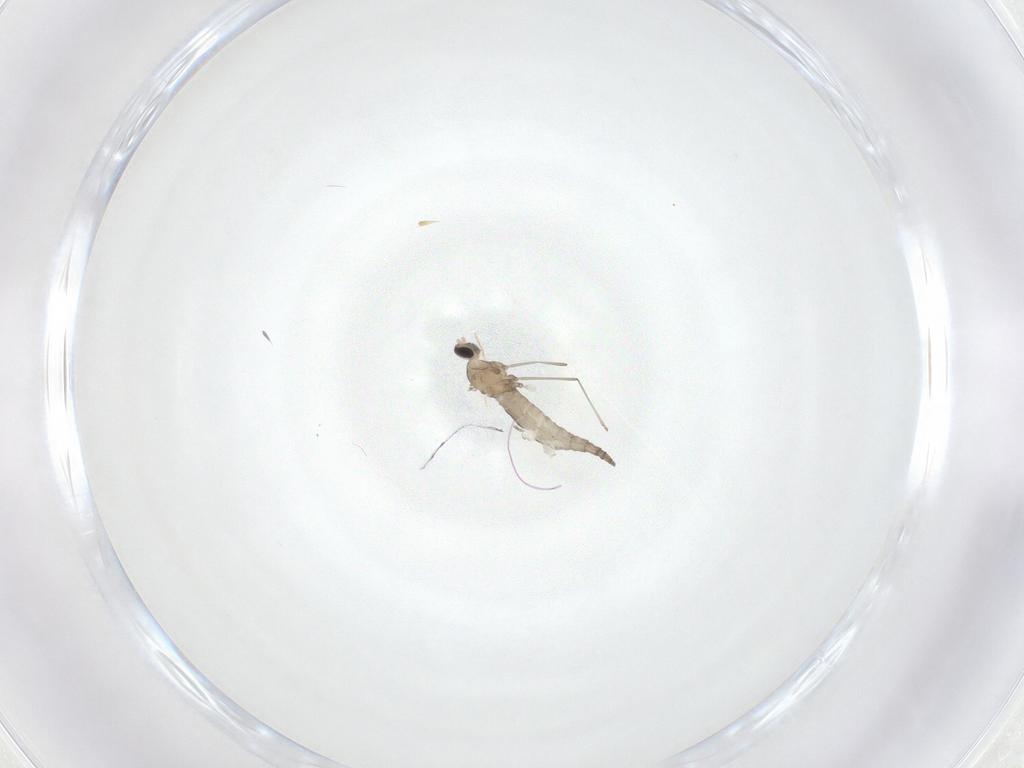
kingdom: Animalia
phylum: Arthropoda
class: Insecta
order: Diptera
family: Cecidomyiidae
